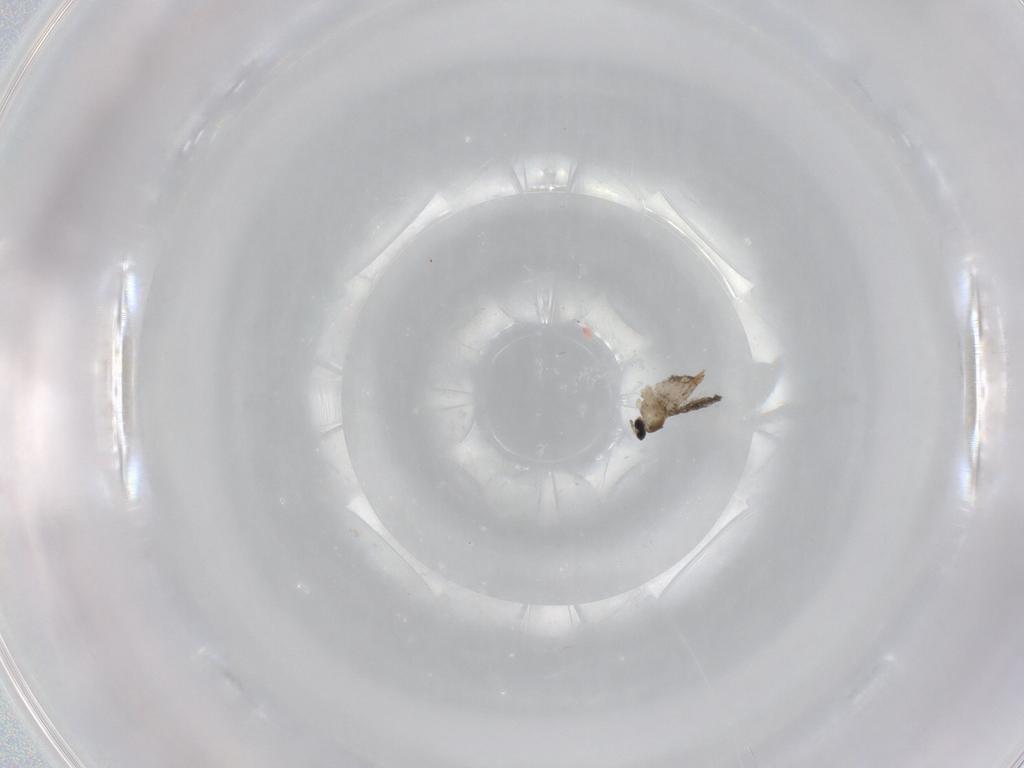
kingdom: Animalia
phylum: Arthropoda
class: Insecta
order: Diptera
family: Cecidomyiidae
